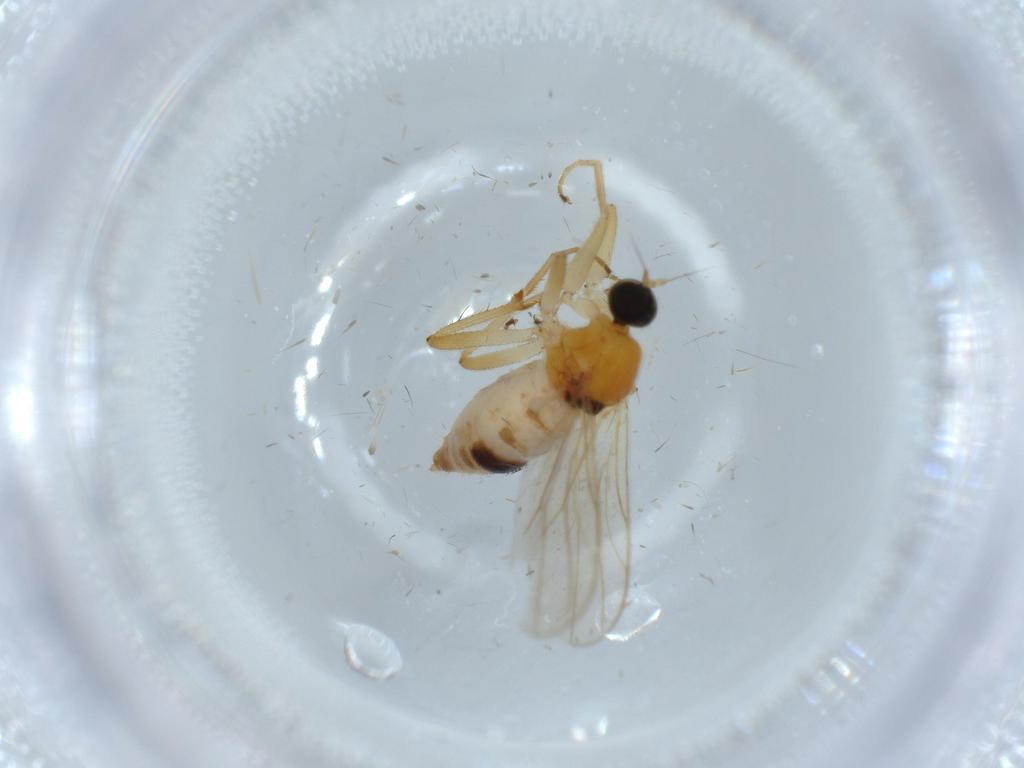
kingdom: Animalia
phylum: Arthropoda
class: Insecta
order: Diptera
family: Hybotidae
